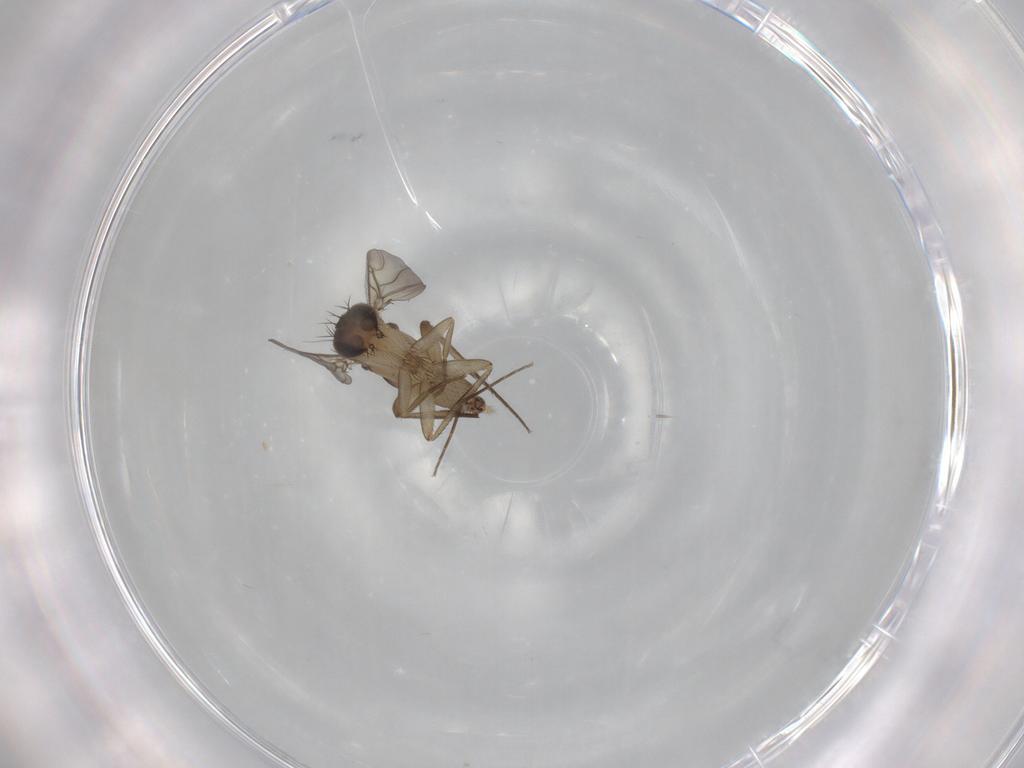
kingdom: Animalia
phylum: Arthropoda
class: Insecta
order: Diptera
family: Phoridae
